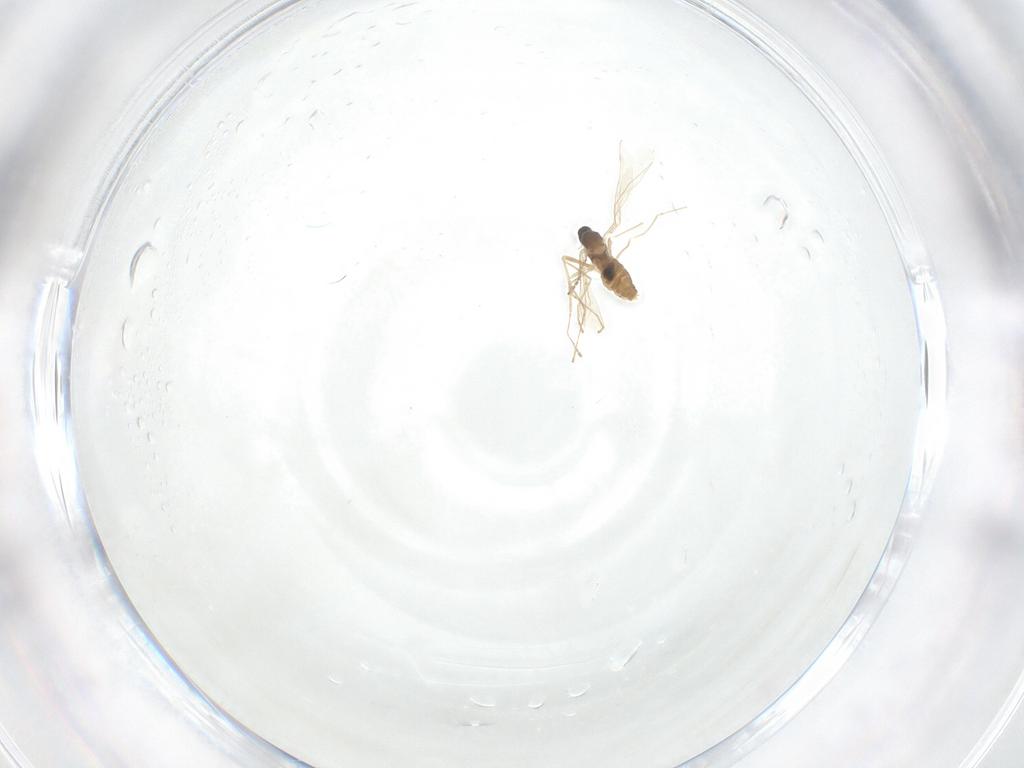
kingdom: Animalia
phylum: Arthropoda
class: Insecta
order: Diptera
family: Cecidomyiidae
